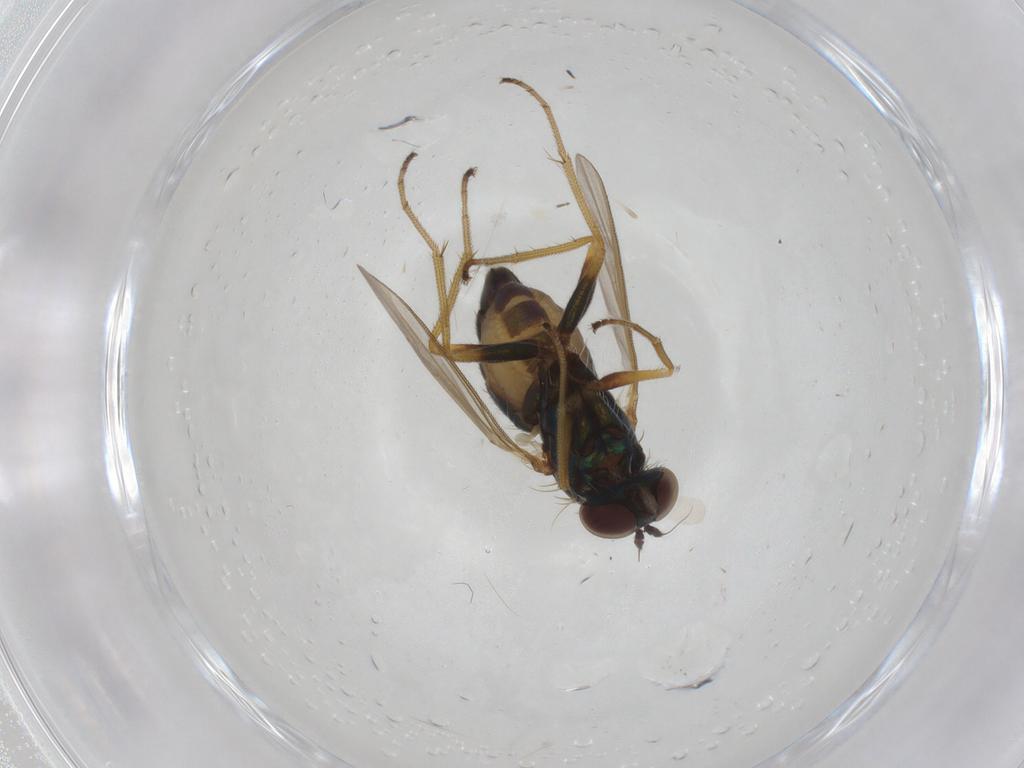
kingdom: Animalia
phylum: Arthropoda
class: Insecta
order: Diptera
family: Dolichopodidae
